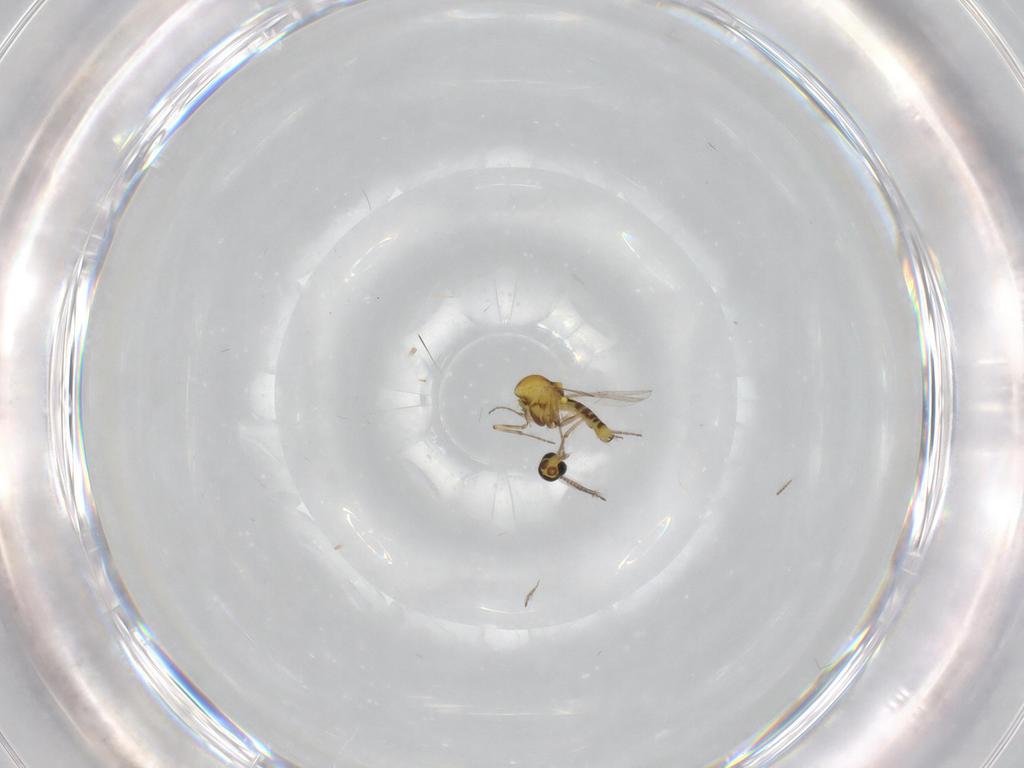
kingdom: Animalia
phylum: Arthropoda
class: Insecta
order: Diptera
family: Ceratopogonidae
